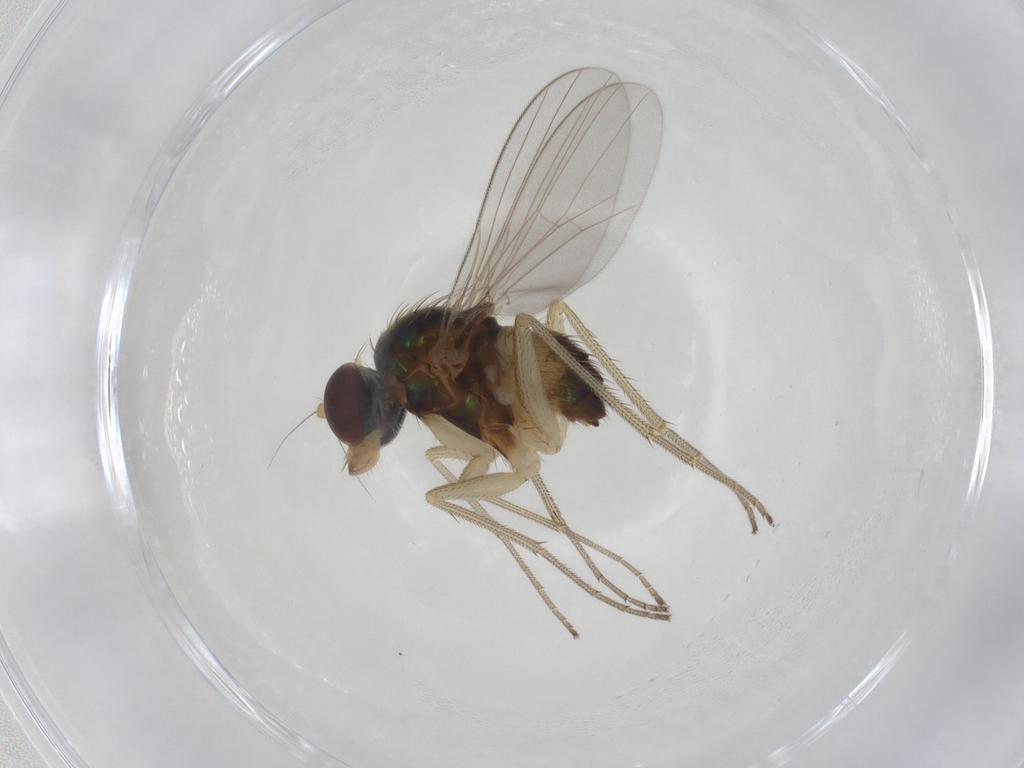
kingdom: Animalia
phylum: Arthropoda
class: Insecta
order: Diptera
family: Dolichopodidae
